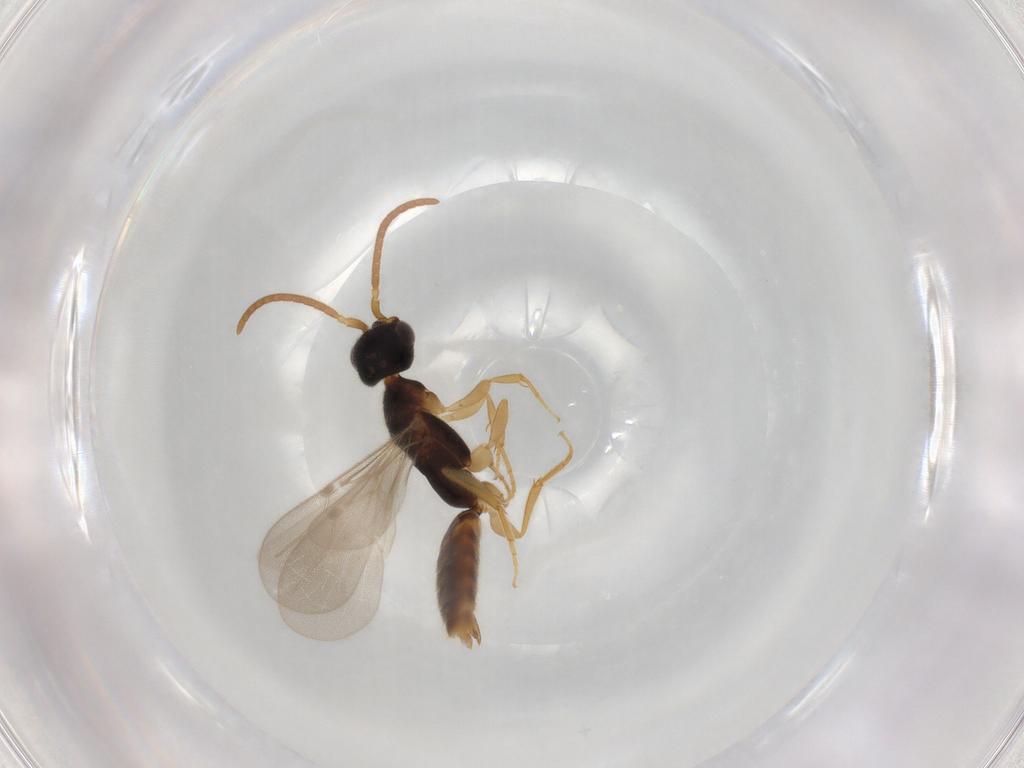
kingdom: Animalia
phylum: Arthropoda
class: Insecta
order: Hymenoptera
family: Bethylidae
